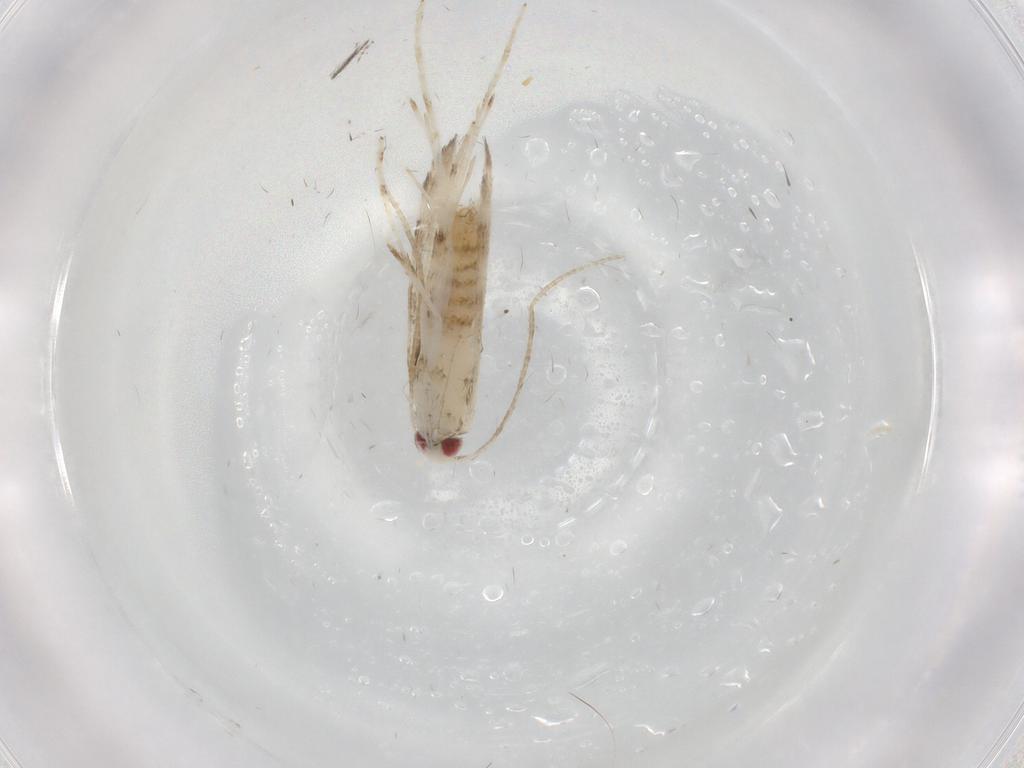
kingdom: Animalia
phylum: Arthropoda
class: Insecta
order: Lepidoptera
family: Gracillariidae
